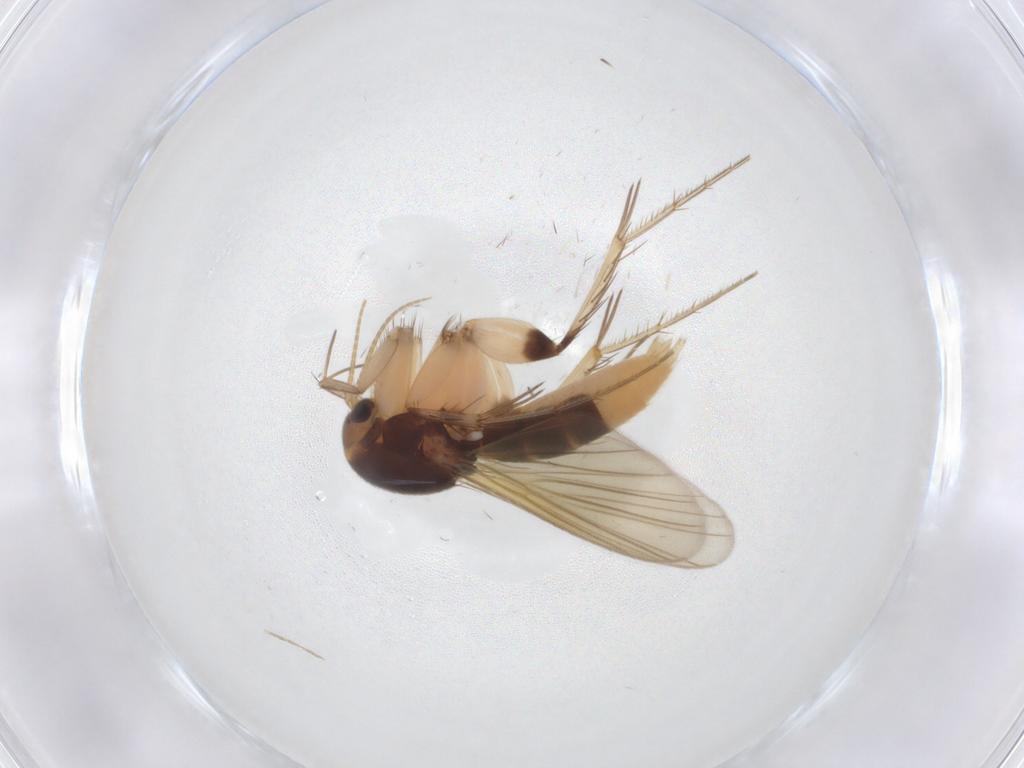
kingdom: Animalia
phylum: Arthropoda
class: Insecta
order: Diptera
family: Mycetophilidae
